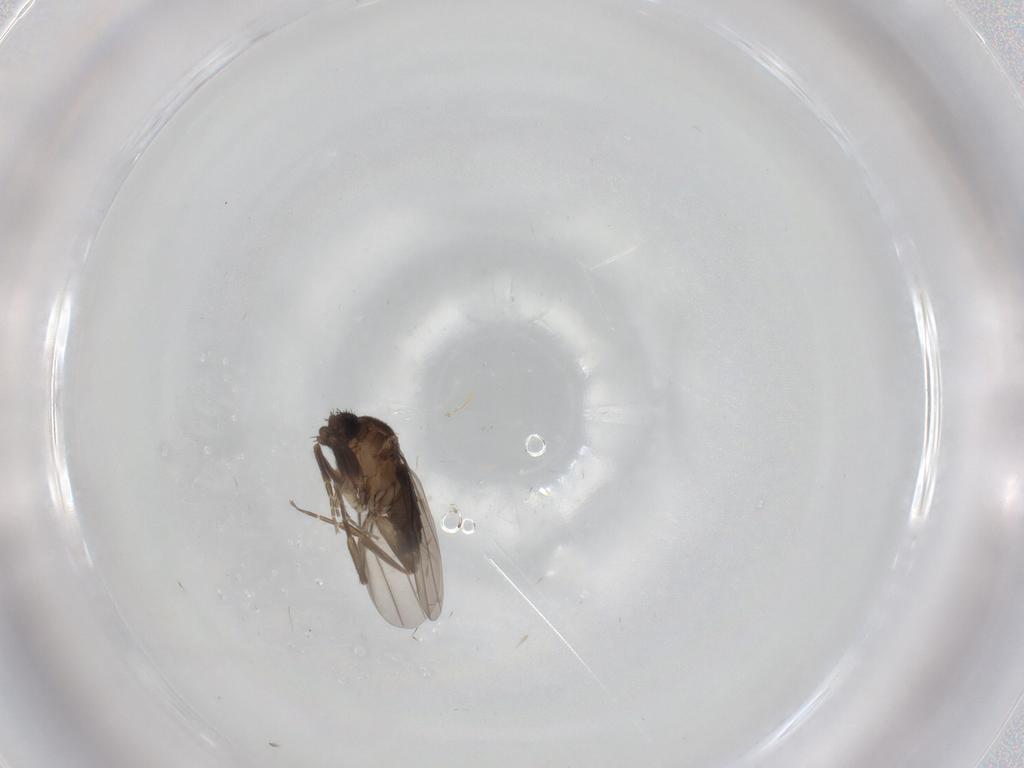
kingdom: Animalia
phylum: Arthropoda
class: Insecta
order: Diptera
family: Phoridae
